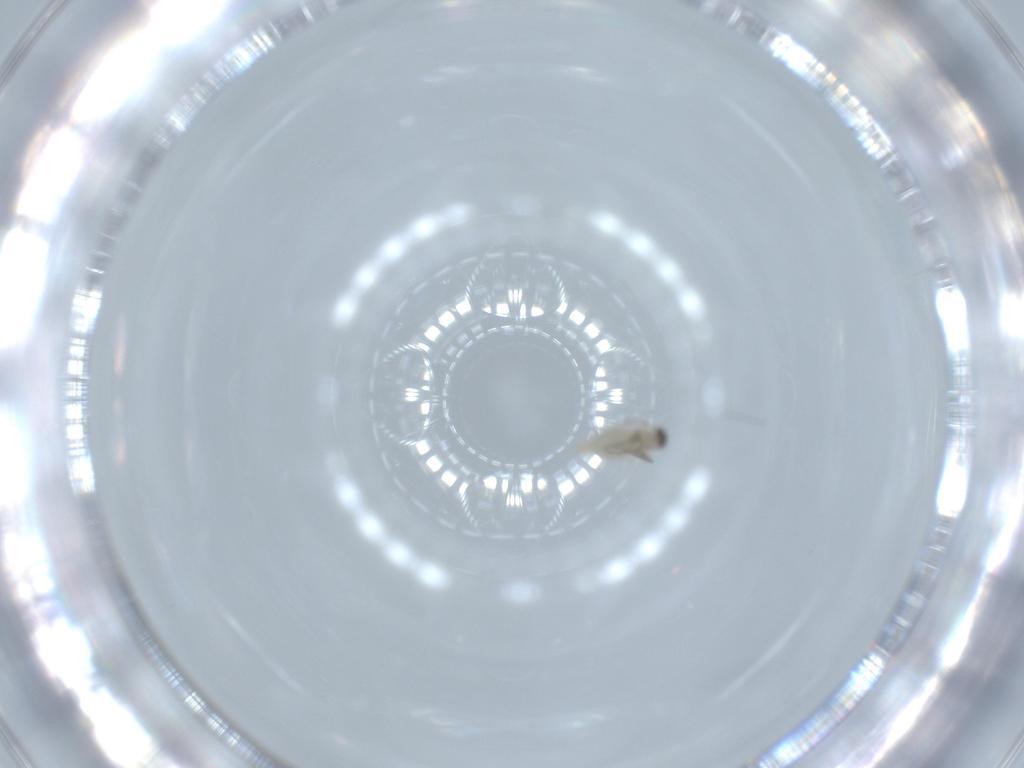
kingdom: Animalia
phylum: Arthropoda
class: Insecta
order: Diptera
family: Cecidomyiidae
